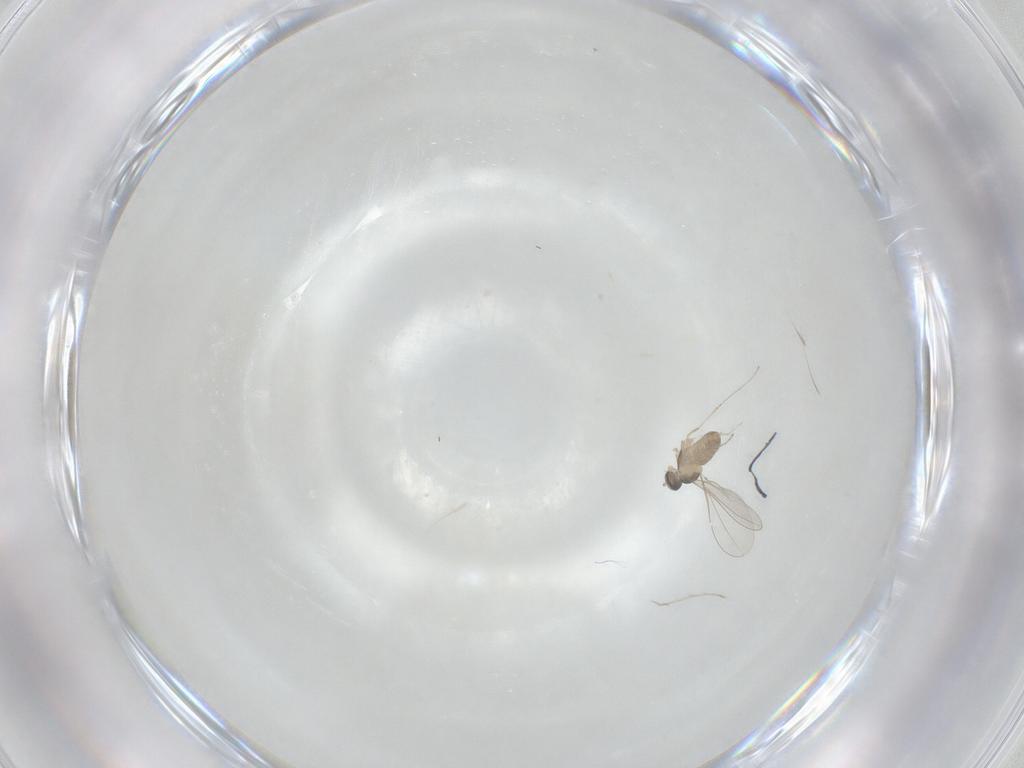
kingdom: Animalia
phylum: Arthropoda
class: Insecta
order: Diptera
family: Cecidomyiidae
